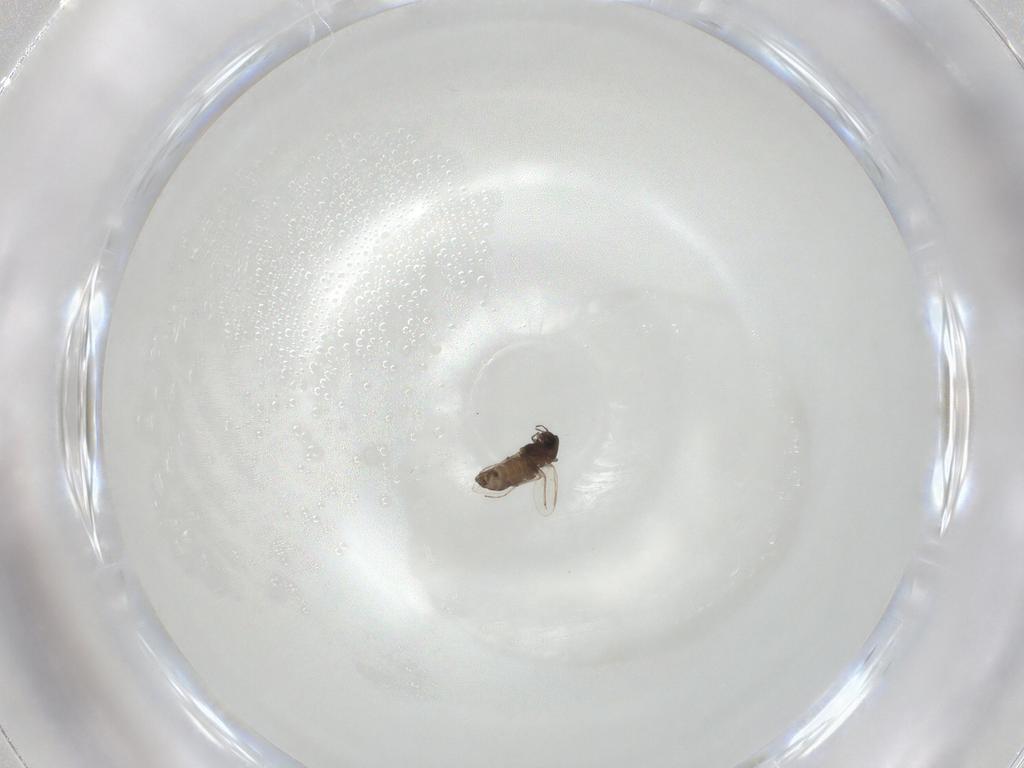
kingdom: Animalia
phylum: Arthropoda
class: Insecta
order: Diptera
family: Chironomidae
